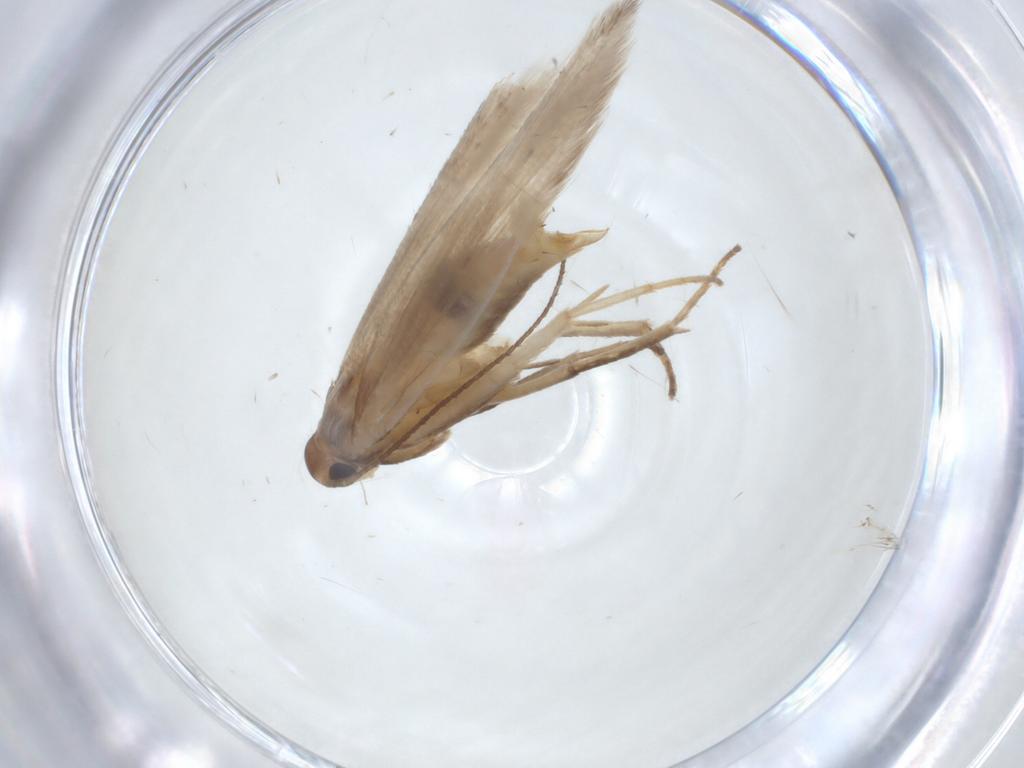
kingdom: Animalia
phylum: Arthropoda
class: Insecta
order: Lepidoptera
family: Gelechiidae
